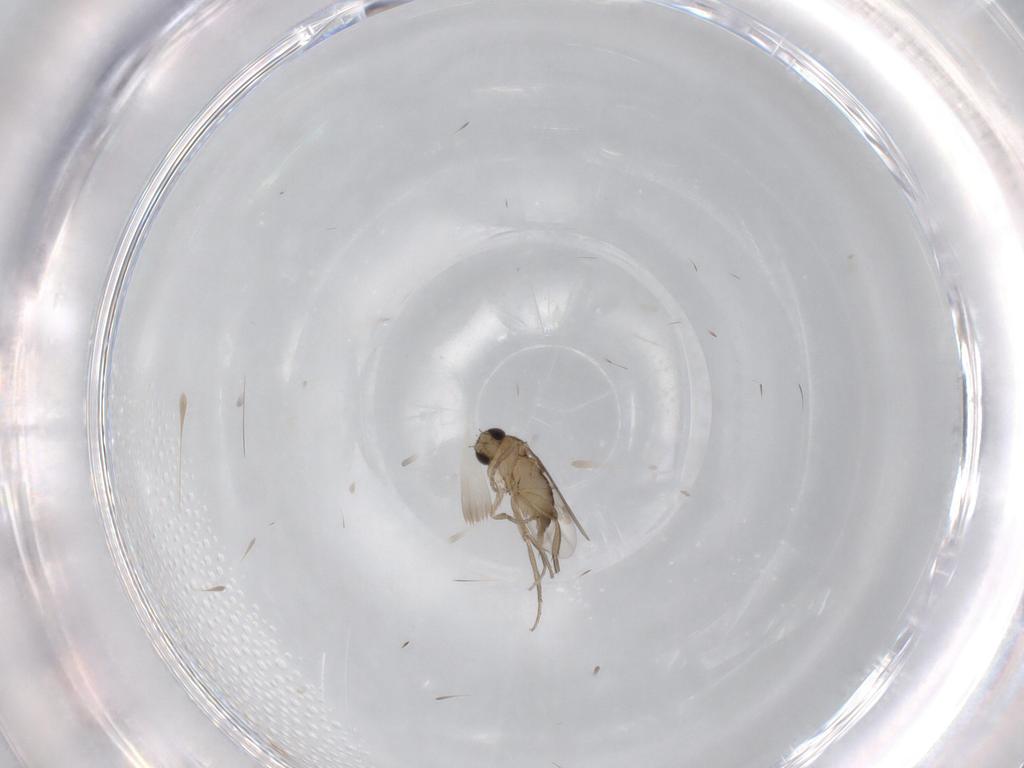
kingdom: Animalia
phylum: Arthropoda
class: Insecta
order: Diptera
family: Phoridae
